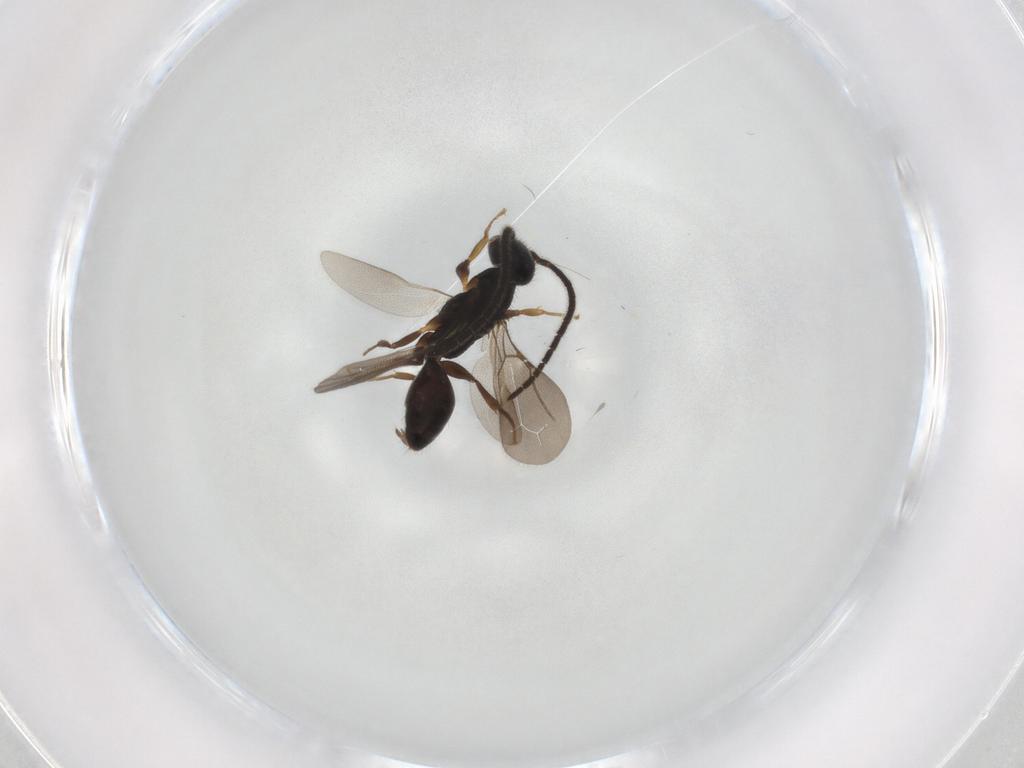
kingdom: Animalia
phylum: Arthropoda
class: Insecta
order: Hymenoptera
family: Bethylidae
